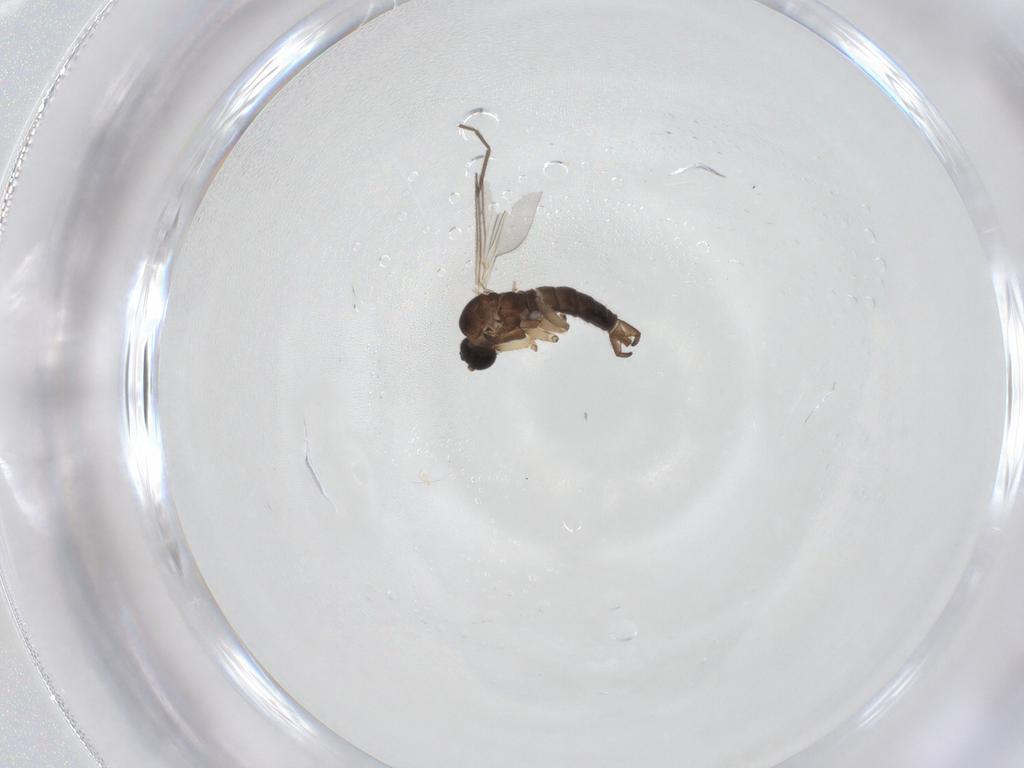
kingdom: Animalia
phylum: Arthropoda
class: Insecta
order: Diptera
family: Sciaridae
